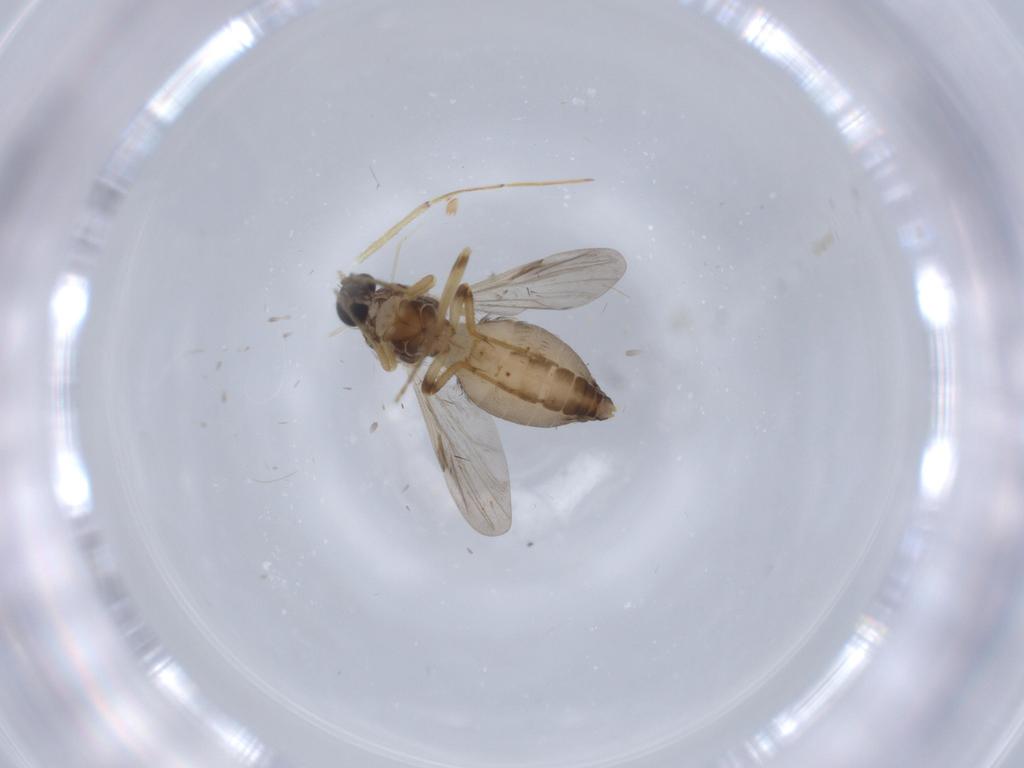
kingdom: Animalia
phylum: Arthropoda
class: Insecta
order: Diptera
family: Ceratopogonidae
